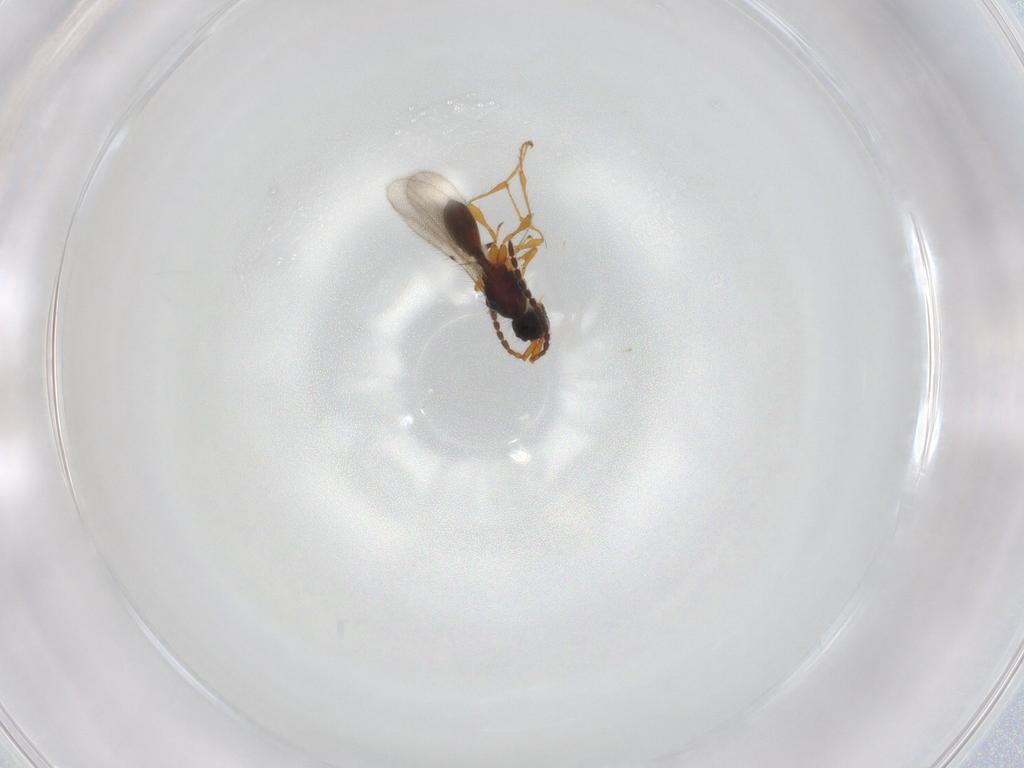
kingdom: Animalia
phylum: Arthropoda
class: Insecta
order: Hymenoptera
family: Diapriidae
